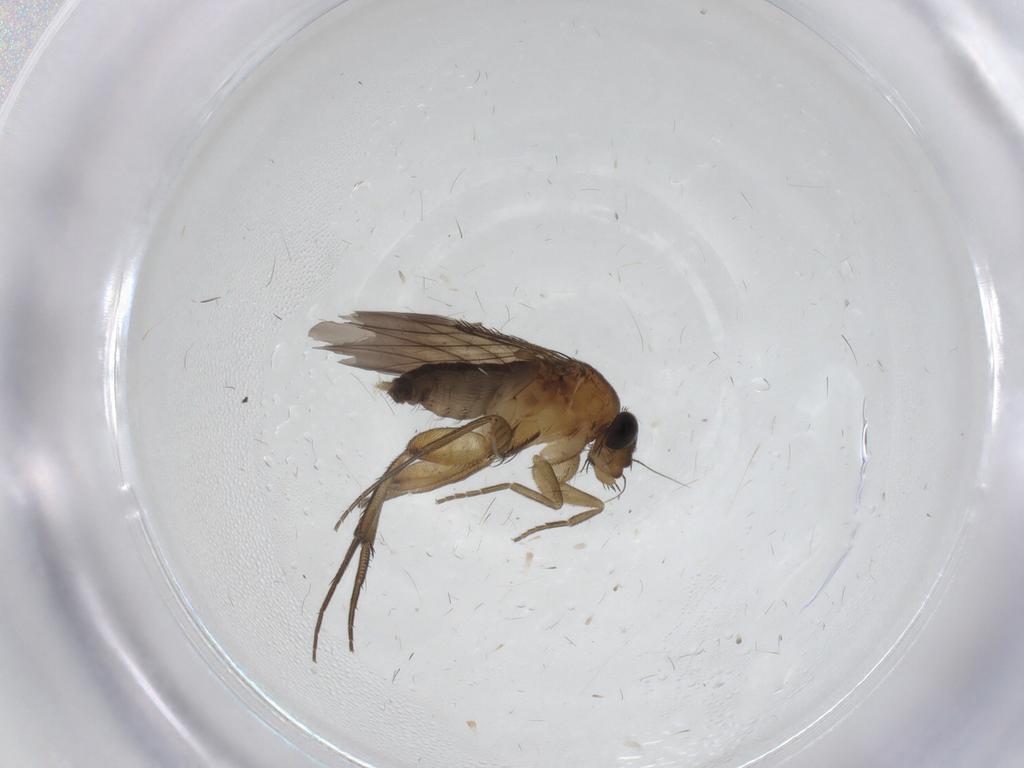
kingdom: Animalia
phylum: Arthropoda
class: Insecta
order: Diptera
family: Phoridae
